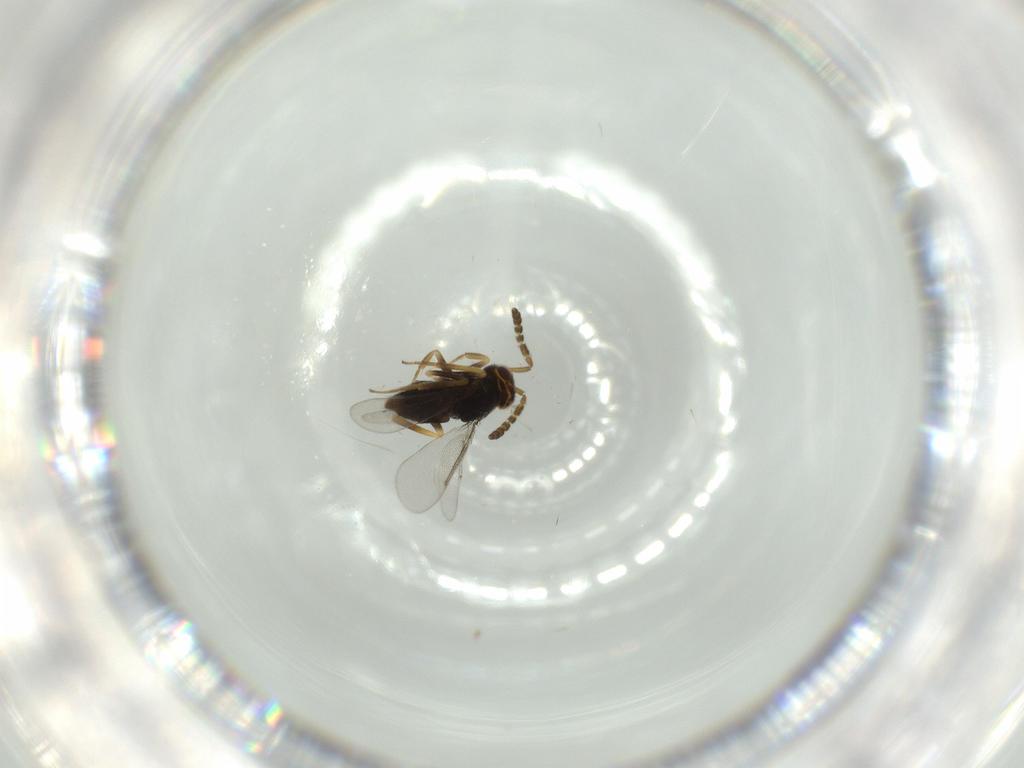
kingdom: Animalia
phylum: Arthropoda
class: Insecta
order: Hymenoptera
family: Aphelinidae
